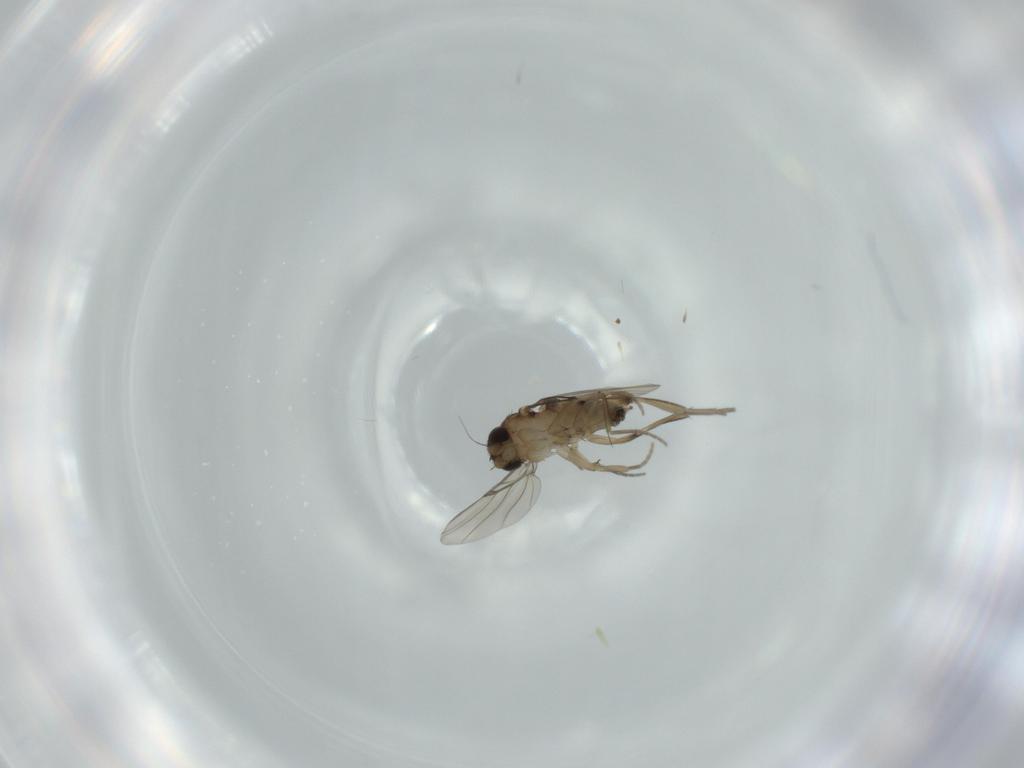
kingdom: Animalia
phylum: Arthropoda
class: Insecta
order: Diptera
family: Phoridae
